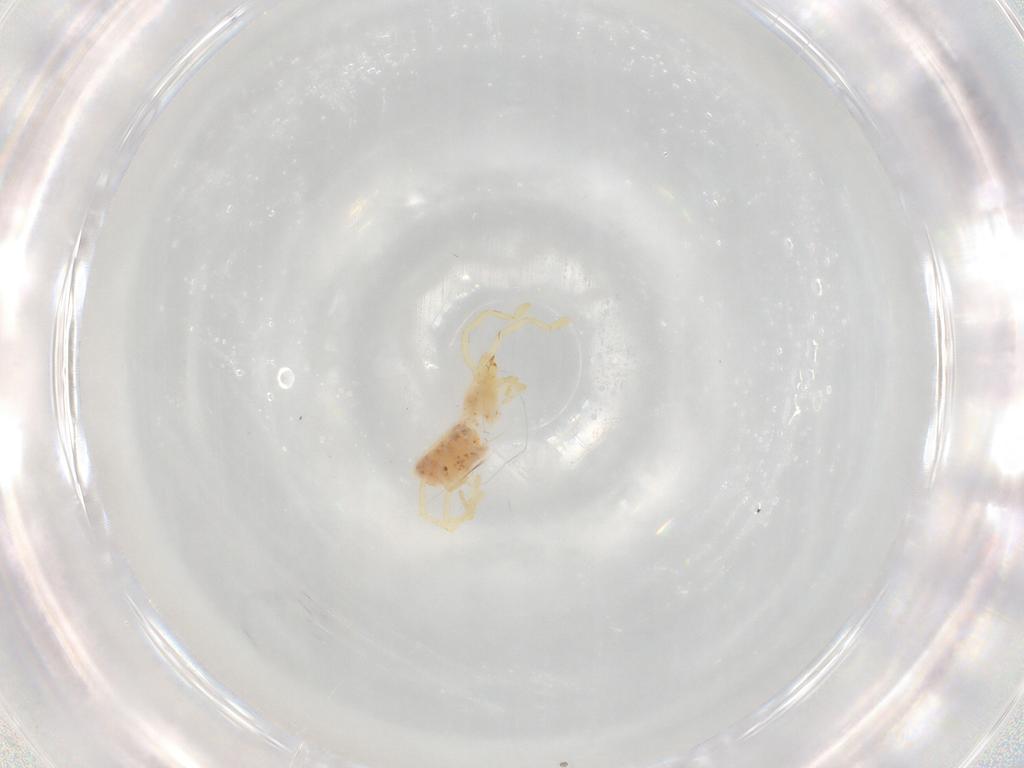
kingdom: Animalia
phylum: Arthropoda
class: Arachnida
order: Trombidiformes
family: Erythraeidae
